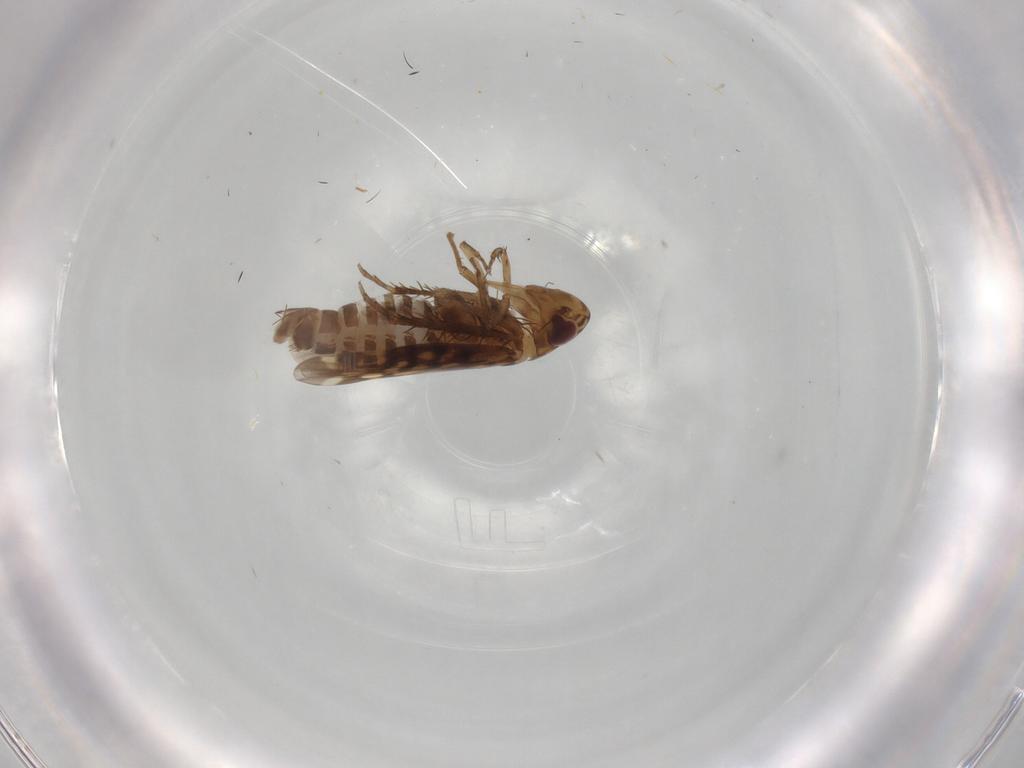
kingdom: Animalia
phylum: Arthropoda
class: Insecta
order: Hemiptera
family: Cicadellidae
